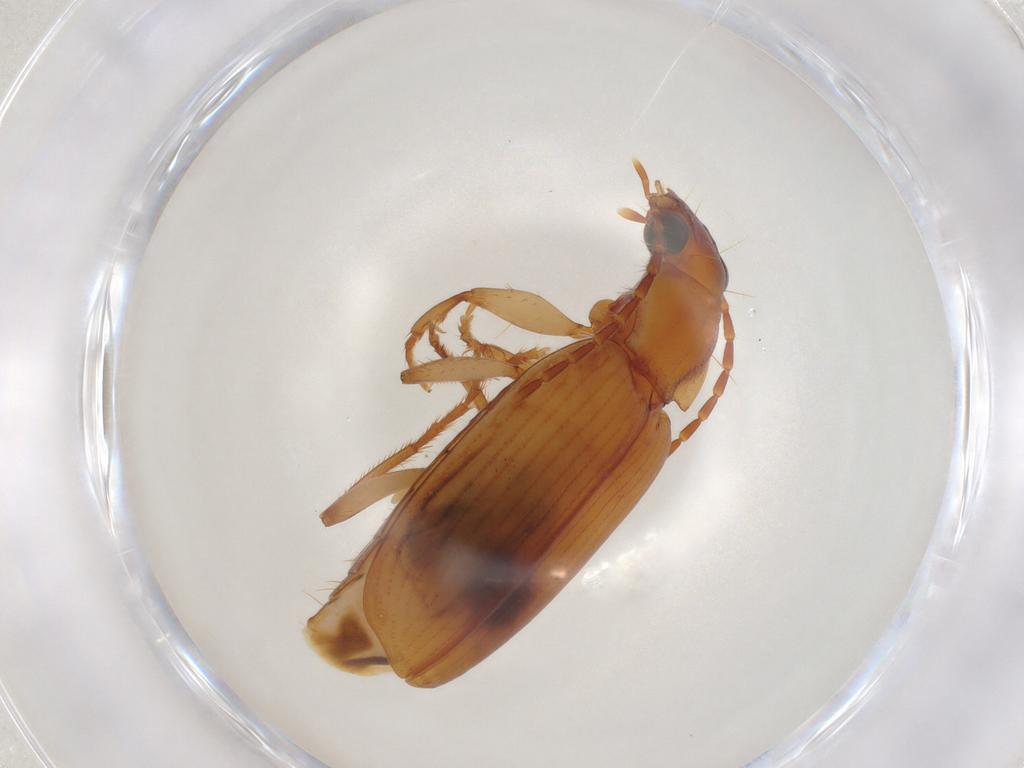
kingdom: Animalia
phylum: Arthropoda
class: Insecta
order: Coleoptera
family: Carabidae
